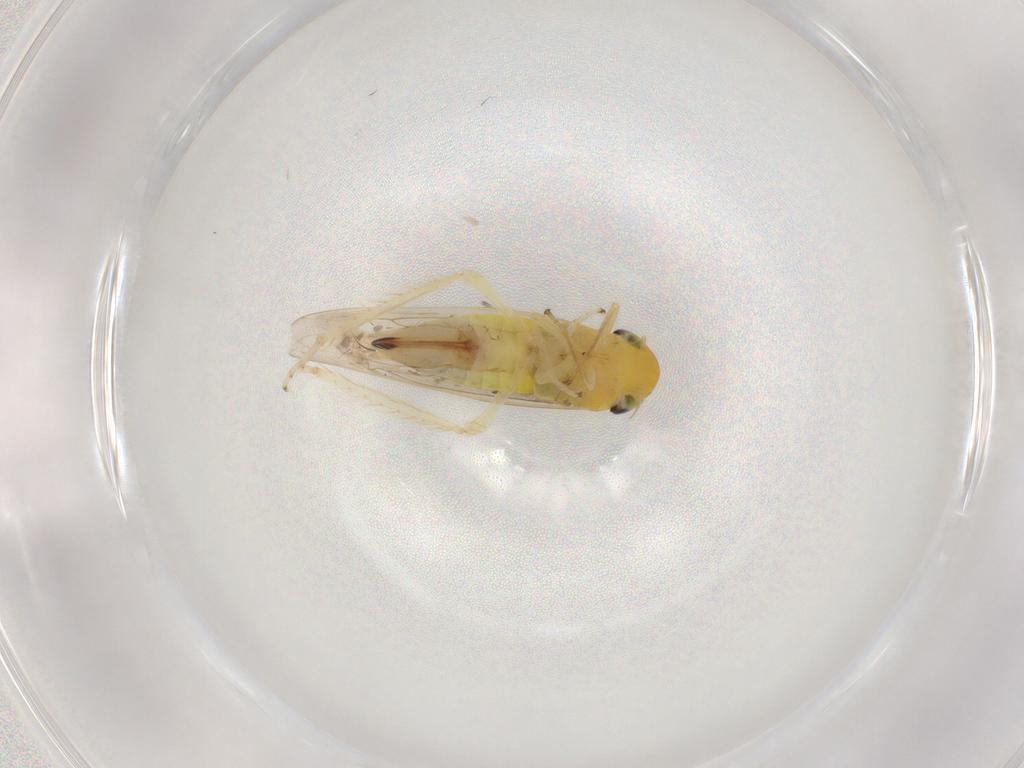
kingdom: Animalia
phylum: Arthropoda
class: Insecta
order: Hemiptera
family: Cicadellidae
